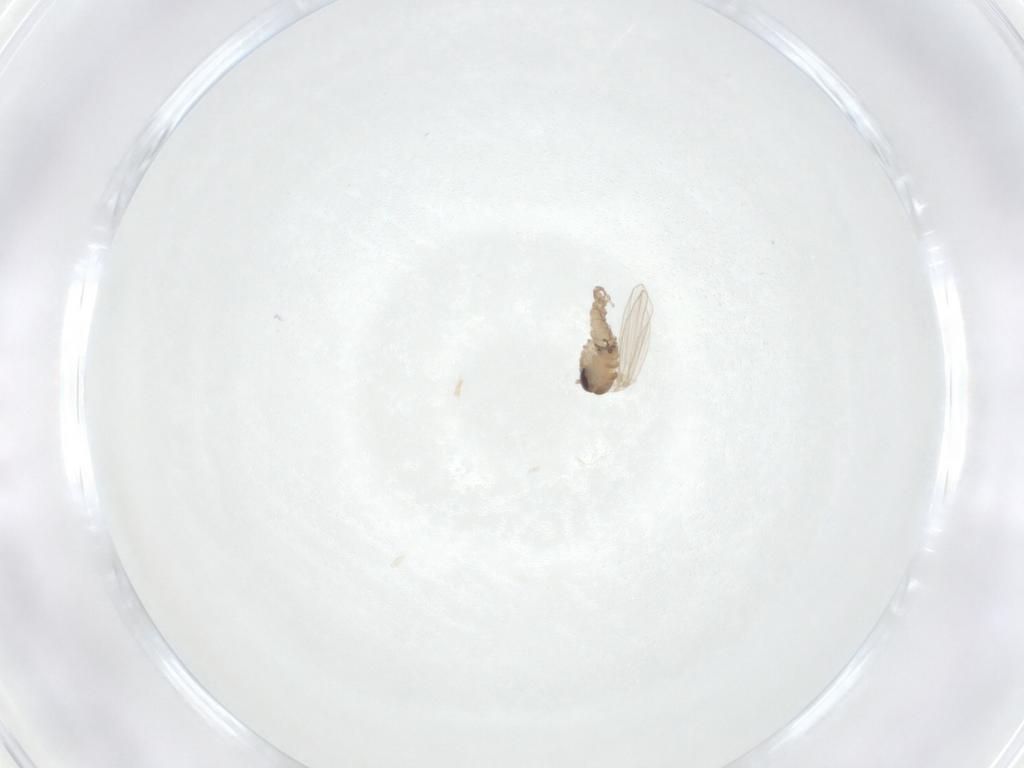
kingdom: Animalia
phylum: Arthropoda
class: Insecta
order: Diptera
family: Psychodidae
